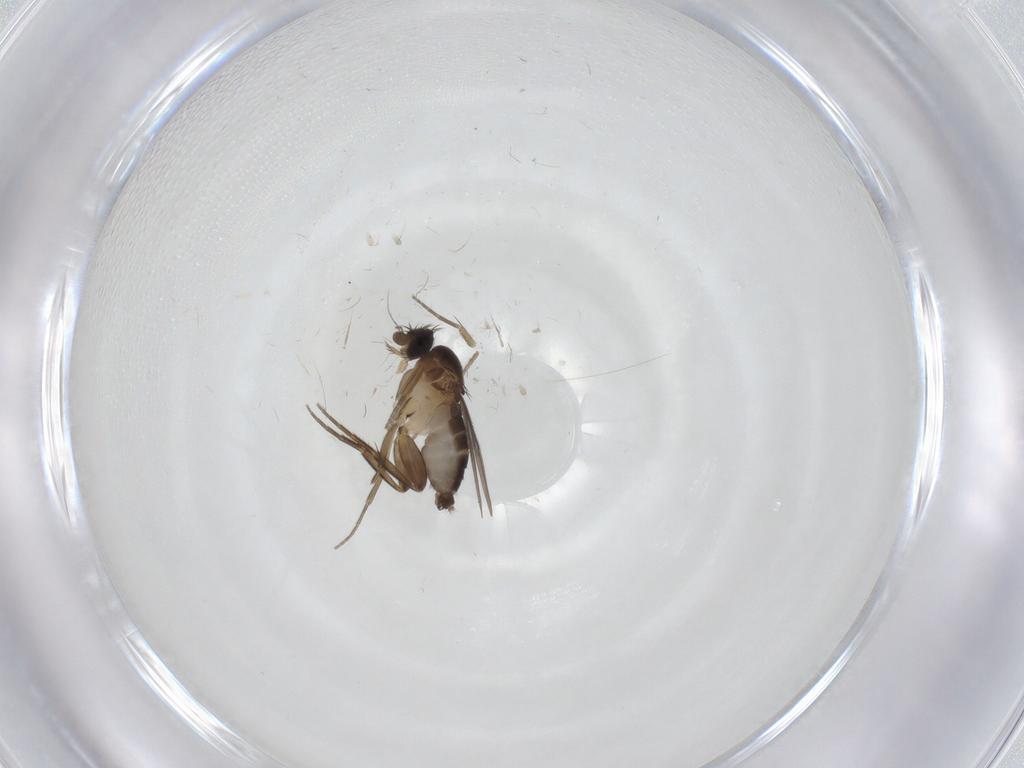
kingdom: Animalia
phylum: Arthropoda
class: Insecta
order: Diptera
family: Phoridae
